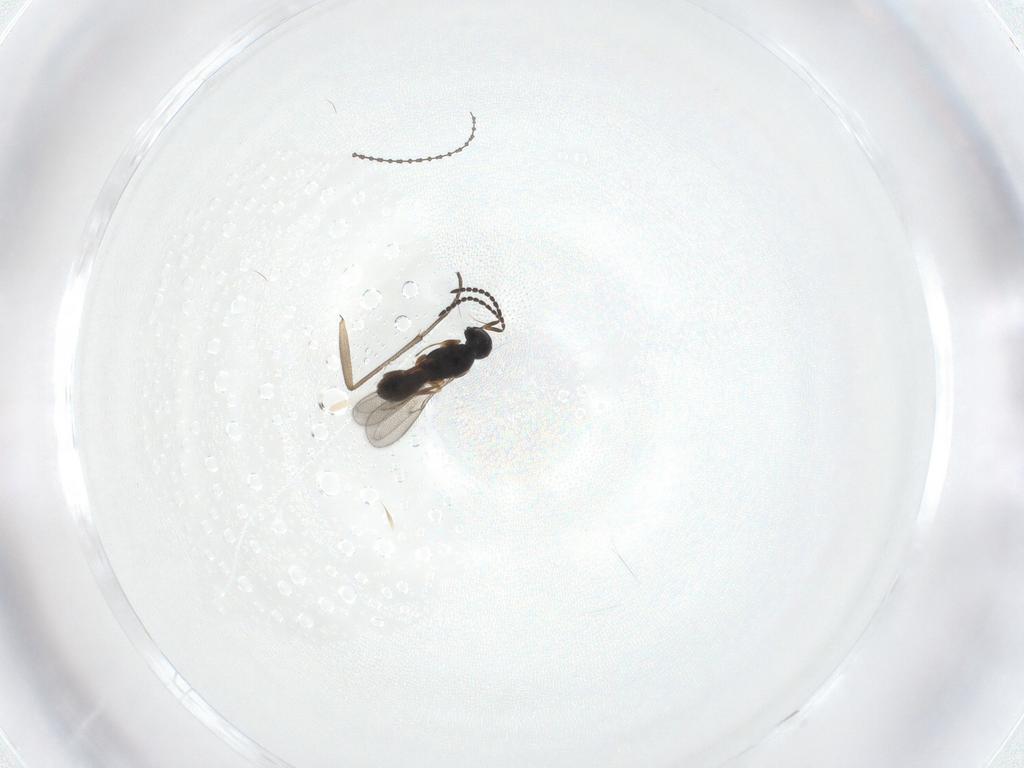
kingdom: Animalia
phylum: Arthropoda
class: Insecta
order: Hymenoptera
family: Scelionidae
